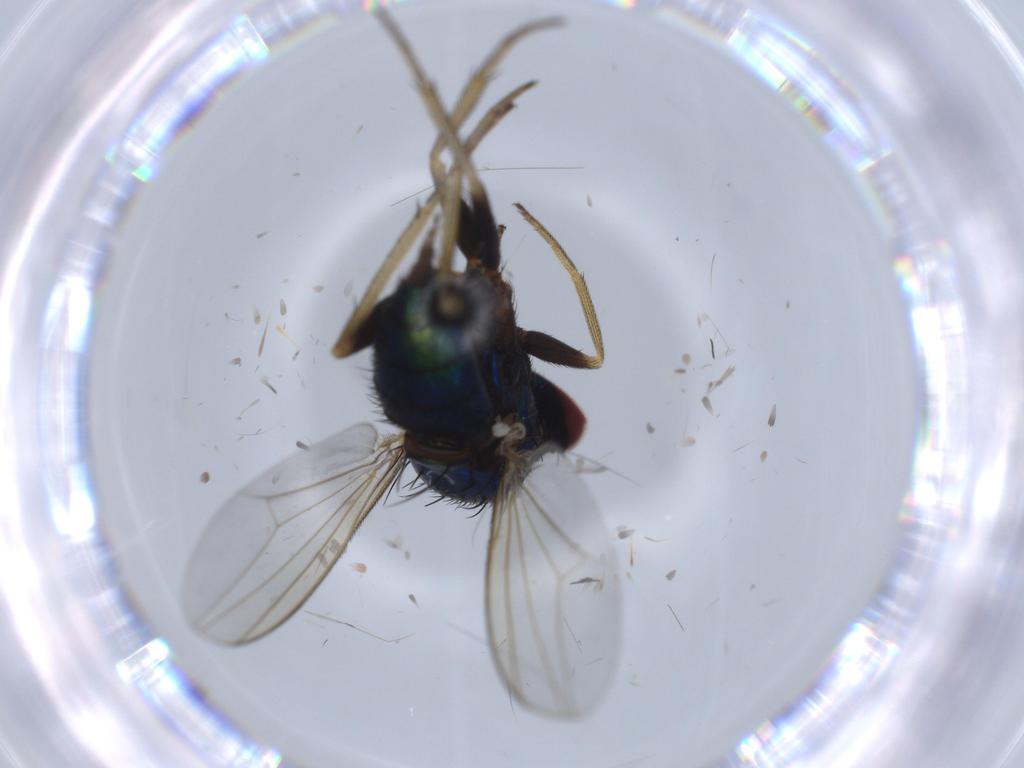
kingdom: Animalia
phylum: Arthropoda
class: Insecta
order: Diptera
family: Dolichopodidae
